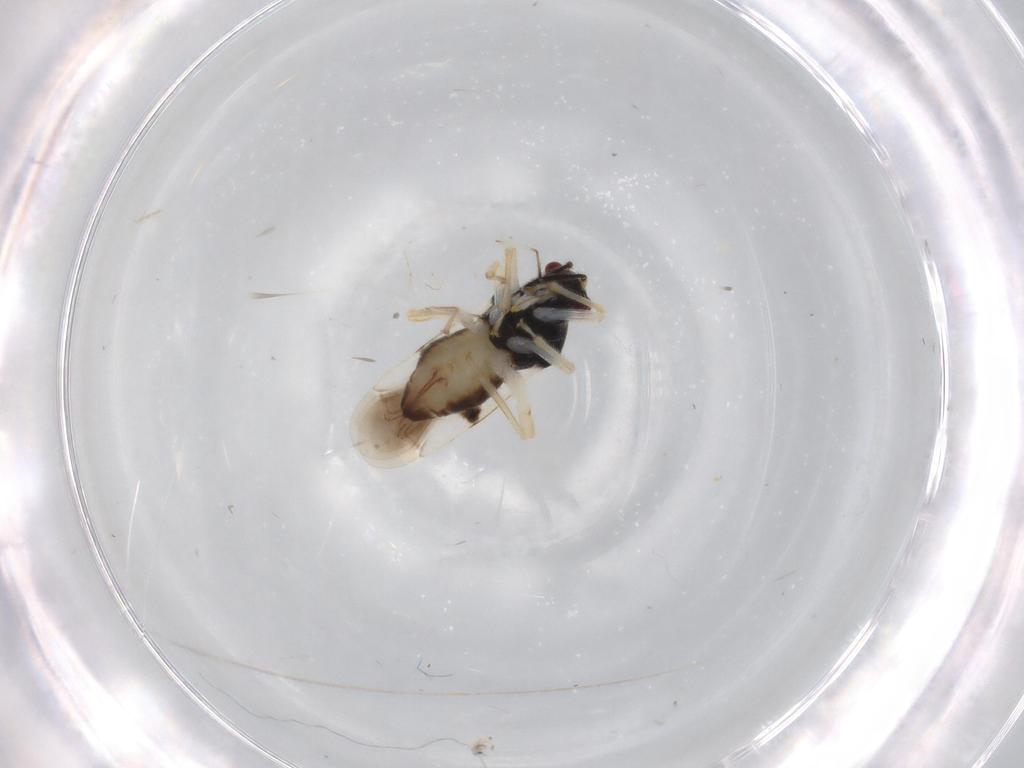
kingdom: Animalia
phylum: Arthropoda
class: Insecta
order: Hemiptera
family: Miridae
